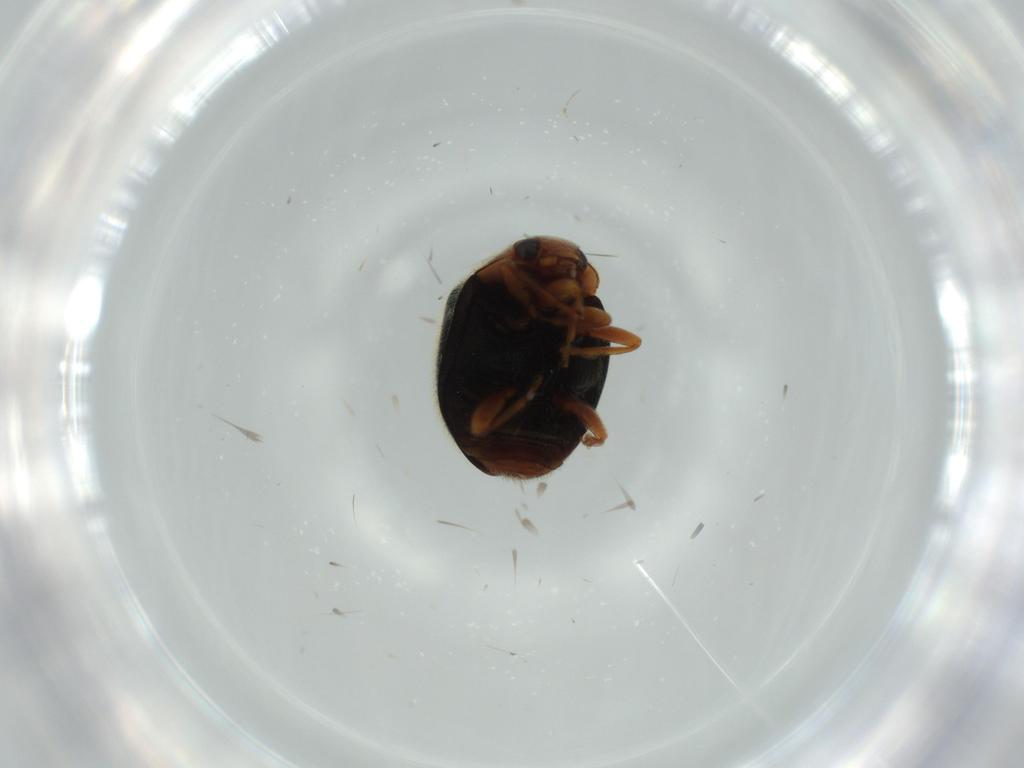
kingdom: Animalia
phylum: Arthropoda
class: Insecta
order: Coleoptera
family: Coccinellidae
